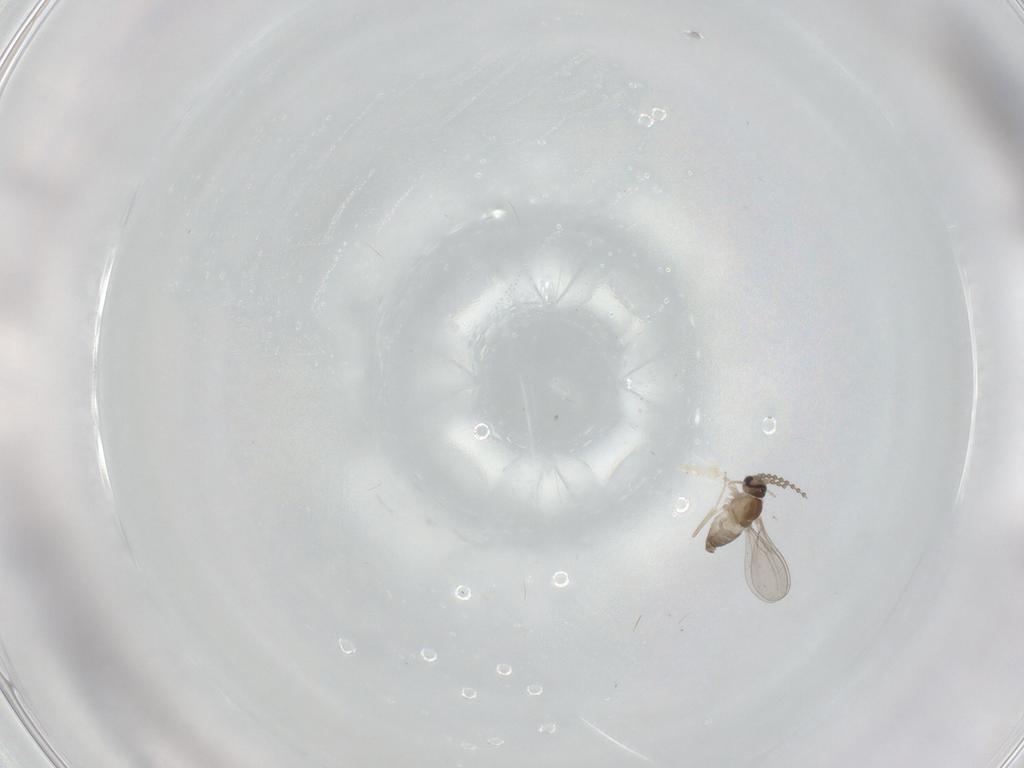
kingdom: Animalia
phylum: Arthropoda
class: Insecta
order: Diptera
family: Cecidomyiidae
